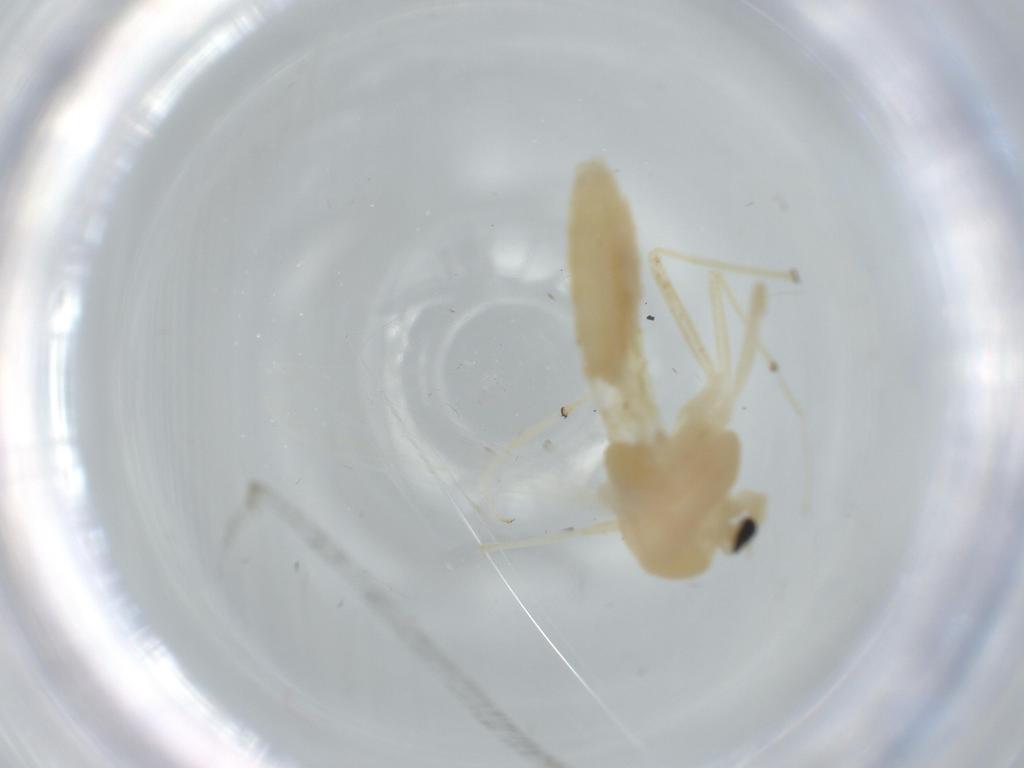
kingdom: Animalia
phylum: Arthropoda
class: Insecta
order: Diptera
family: Chironomidae
